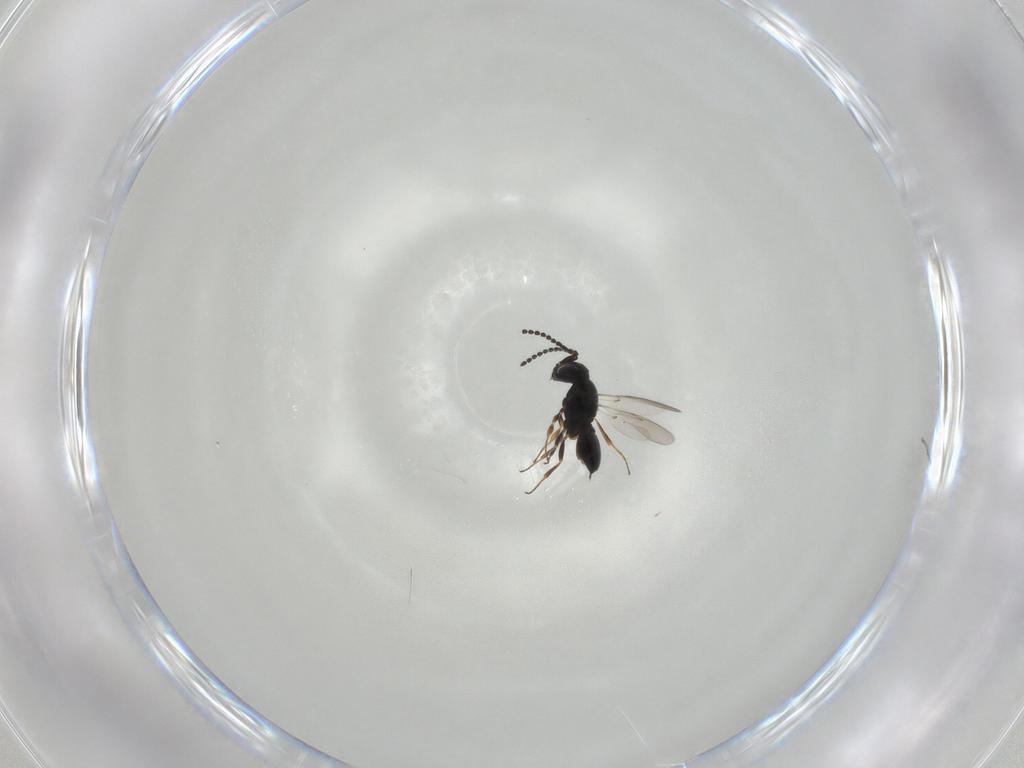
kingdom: Animalia
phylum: Arthropoda
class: Insecta
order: Hymenoptera
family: Scelionidae
